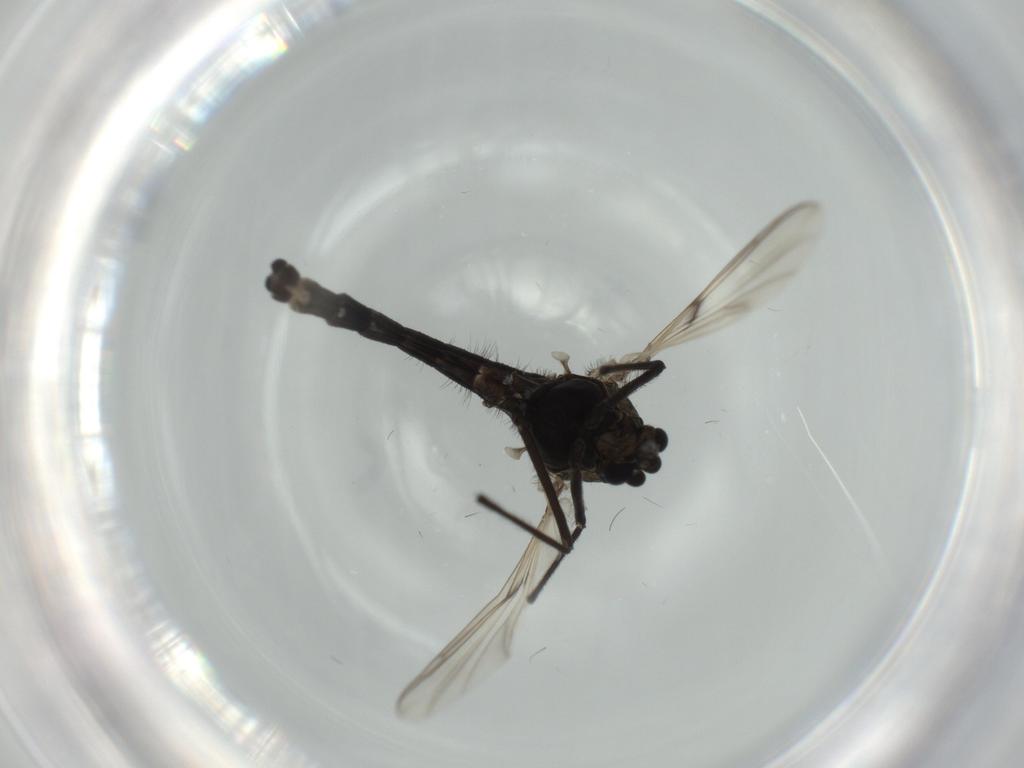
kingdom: Animalia
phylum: Arthropoda
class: Insecta
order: Diptera
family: Chironomidae
